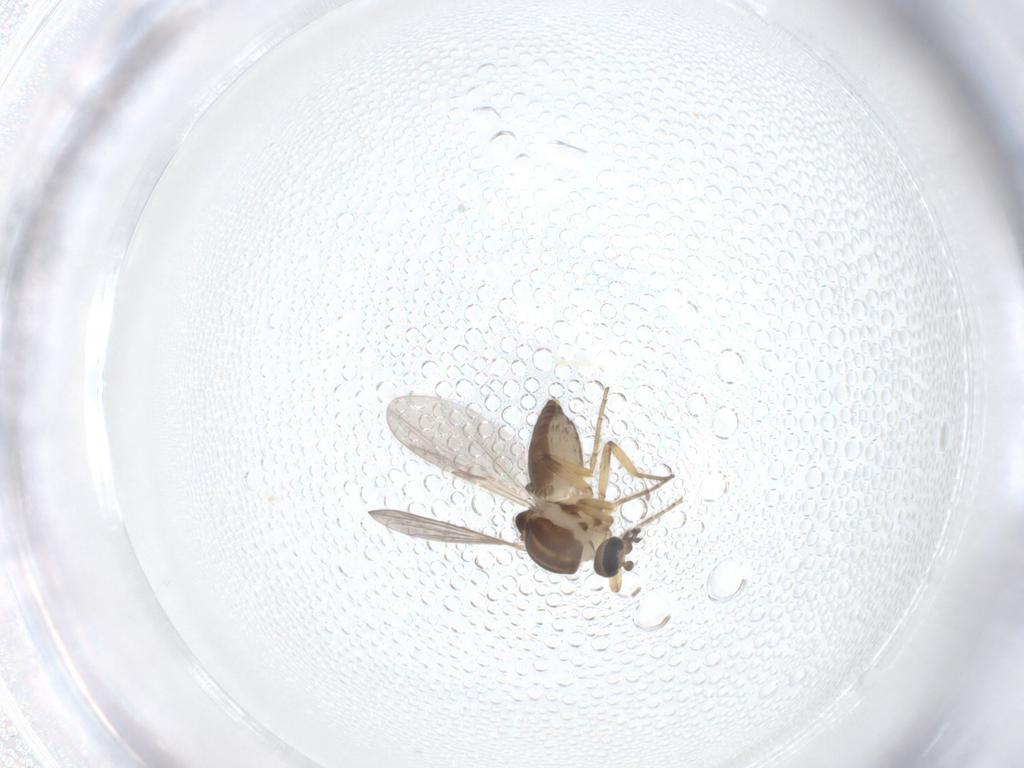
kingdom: Animalia
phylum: Arthropoda
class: Insecta
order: Diptera
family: Ceratopogonidae
